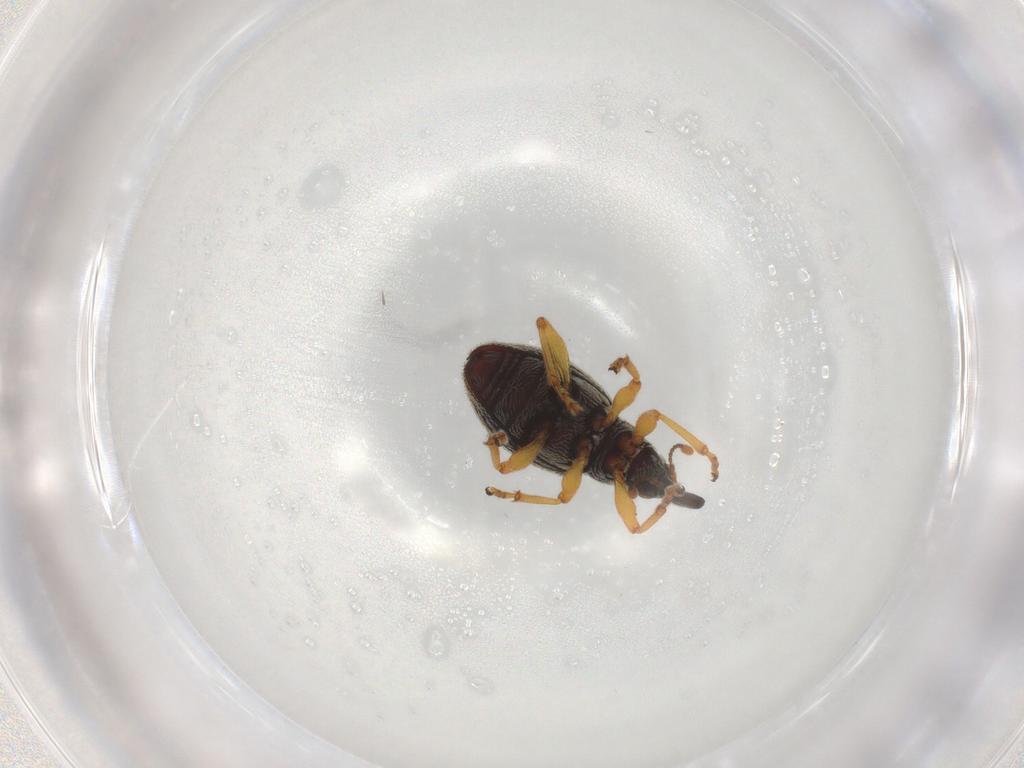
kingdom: Animalia
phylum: Arthropoda
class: Insecta
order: Coleoptera
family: Brentidae
